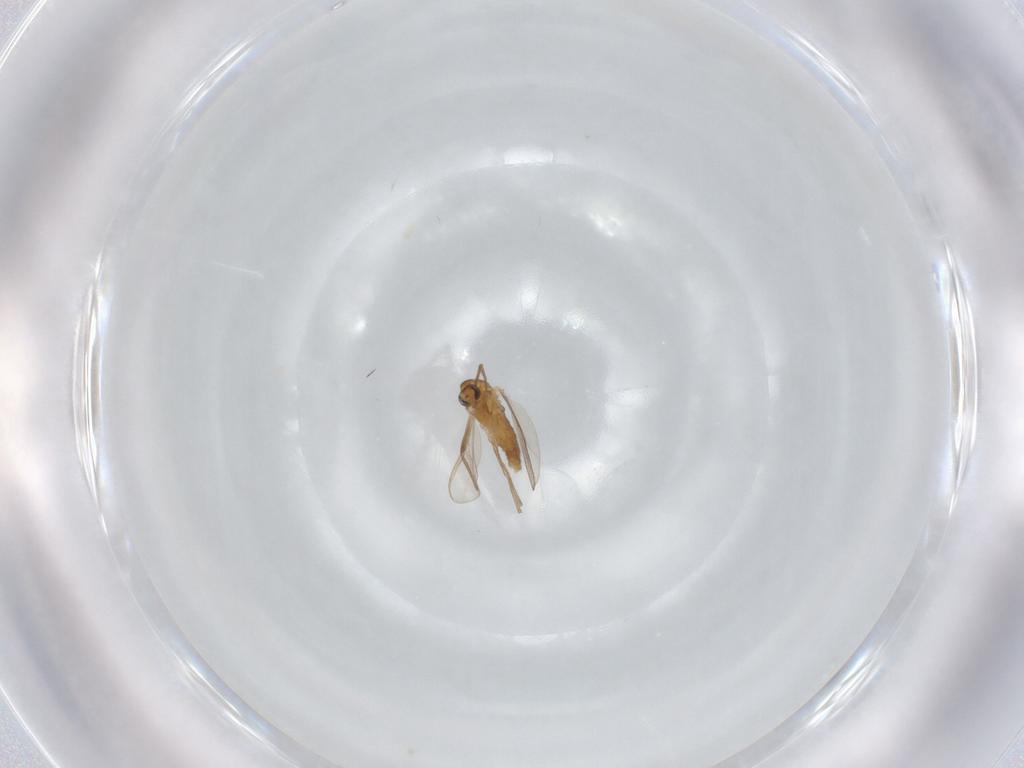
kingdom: Animalia
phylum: Arthropoda
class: Insecta
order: Diptera
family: Chironomidae
